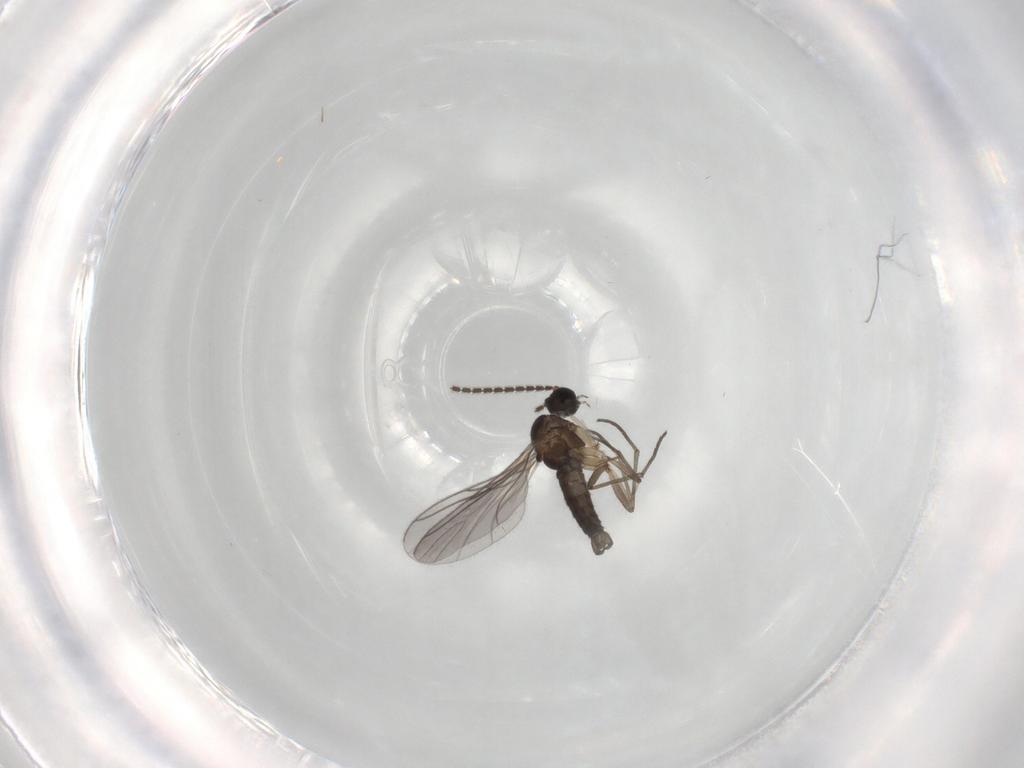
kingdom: Animalia
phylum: Arthropoda
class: Insecta
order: Diptera
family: Sciaridae
